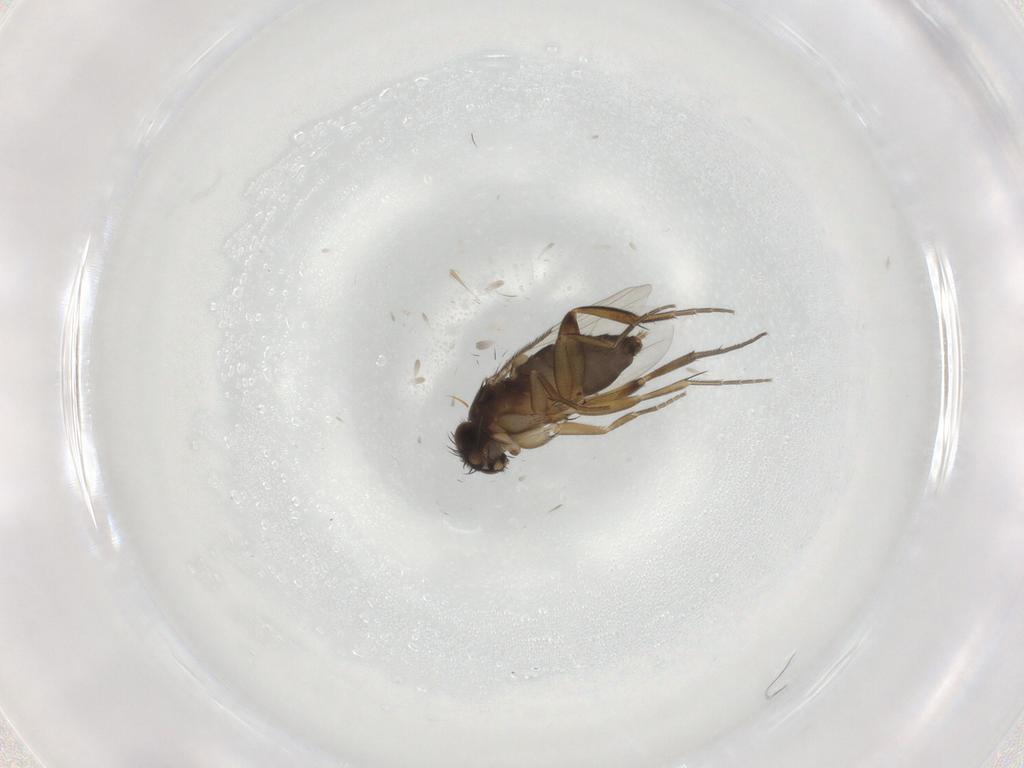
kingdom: Animalia
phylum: Arthropoda
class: Insecta
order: Diptera
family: Phoridae
